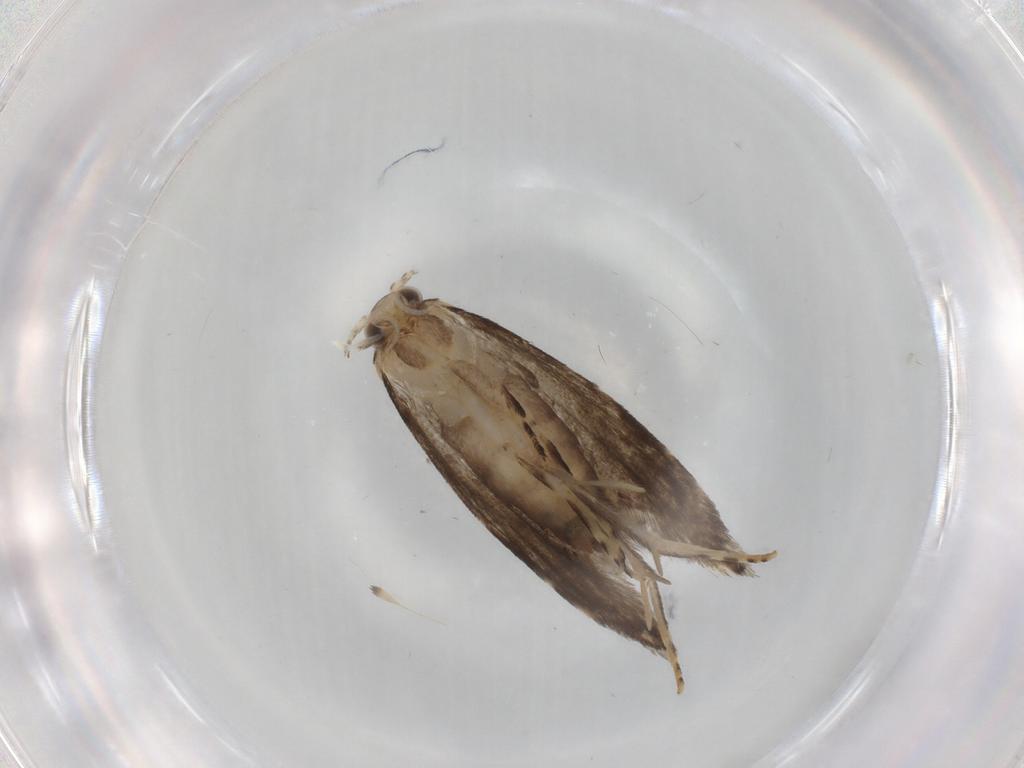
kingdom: Animalia
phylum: Arthropoda
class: Insecta
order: Lepidoptera
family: Tineidae
